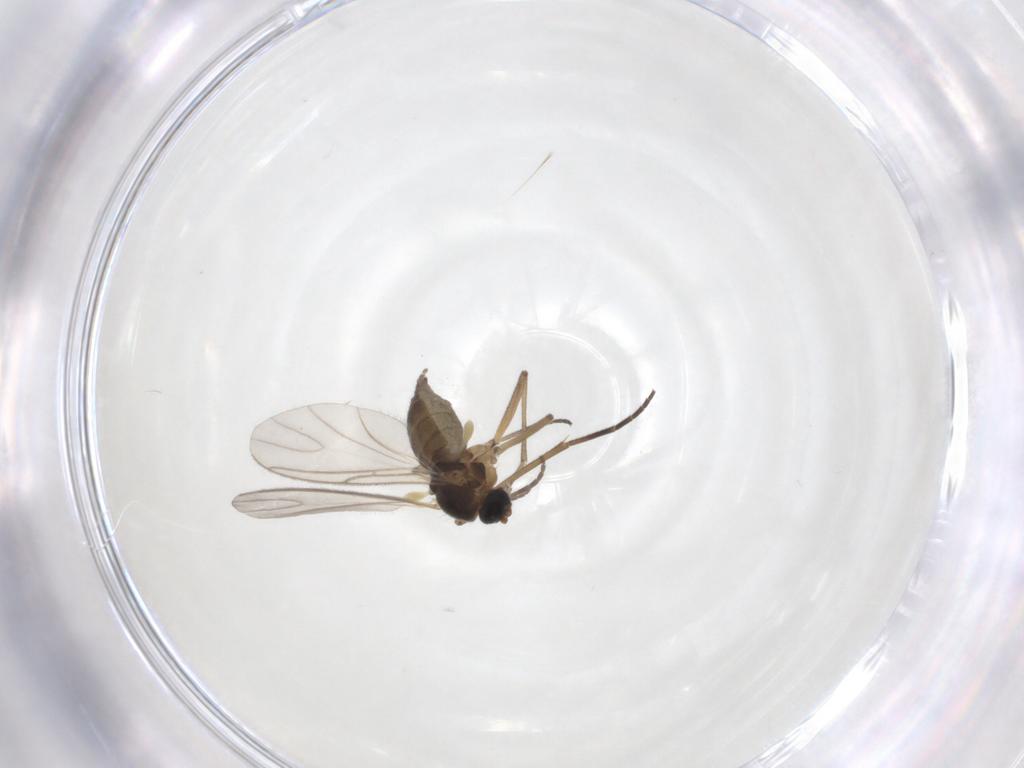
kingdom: Animalia
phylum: Arthropoda
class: Insecta
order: Diptera
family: Sciaridae
